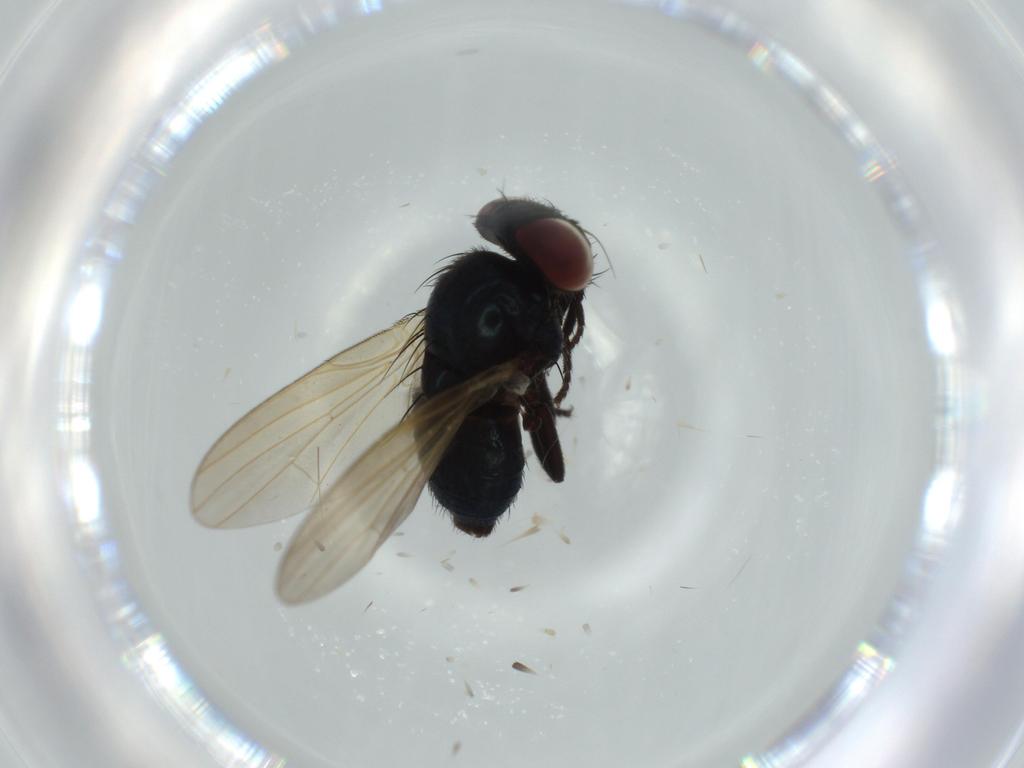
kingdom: Animalia
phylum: Arthropoda
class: Insecta
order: Diptera
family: Lonchaeidae
